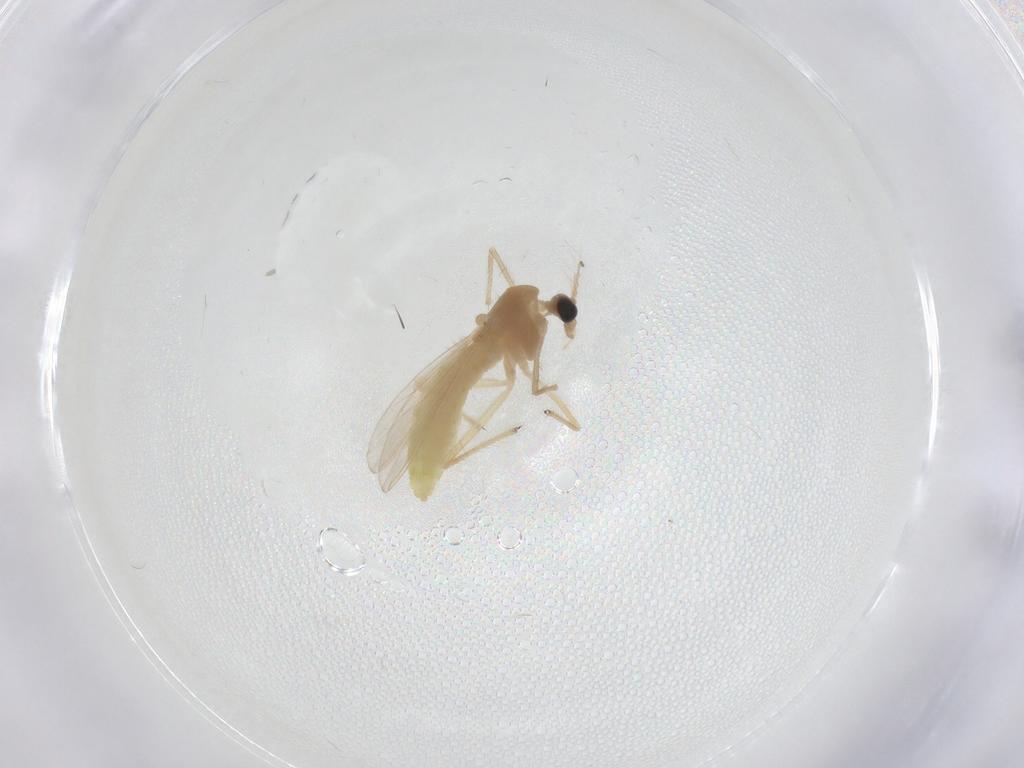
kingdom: Animalia
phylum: Arthropoda
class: Insecta
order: Diptera
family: Chironomidae
